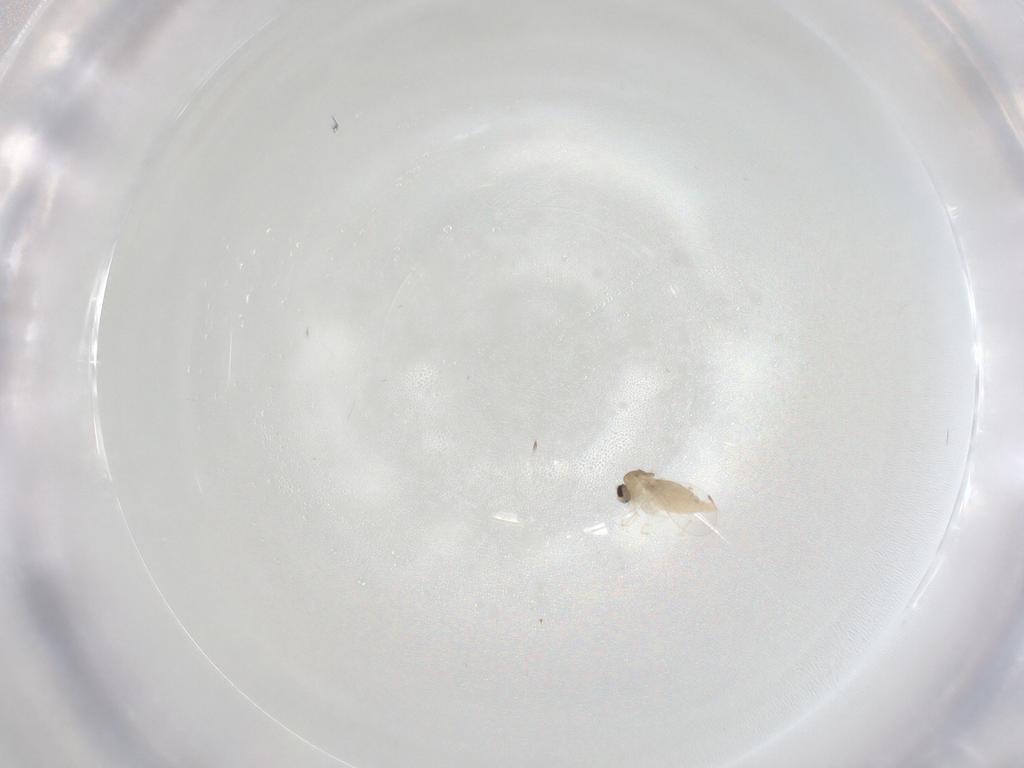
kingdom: Animalia
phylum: Arthropoda
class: Insecta
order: Diptera
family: Cecidomyiidae
